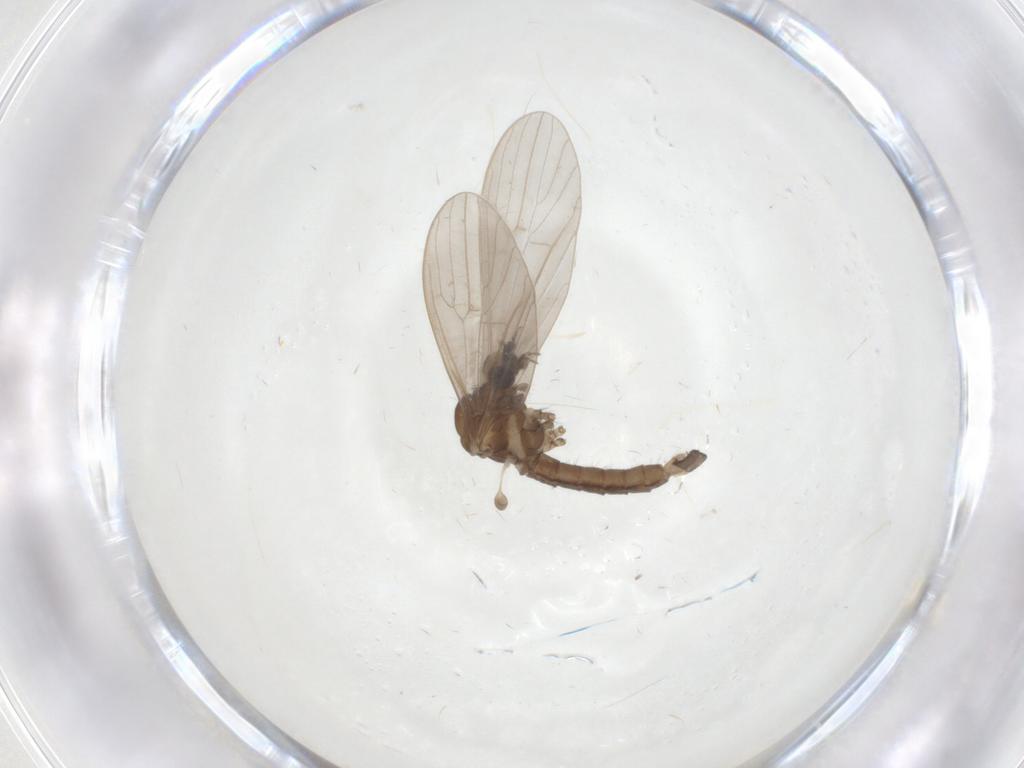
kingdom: Animalia
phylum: Arthropoda
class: Insecta
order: Diptera
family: Limoniidae
